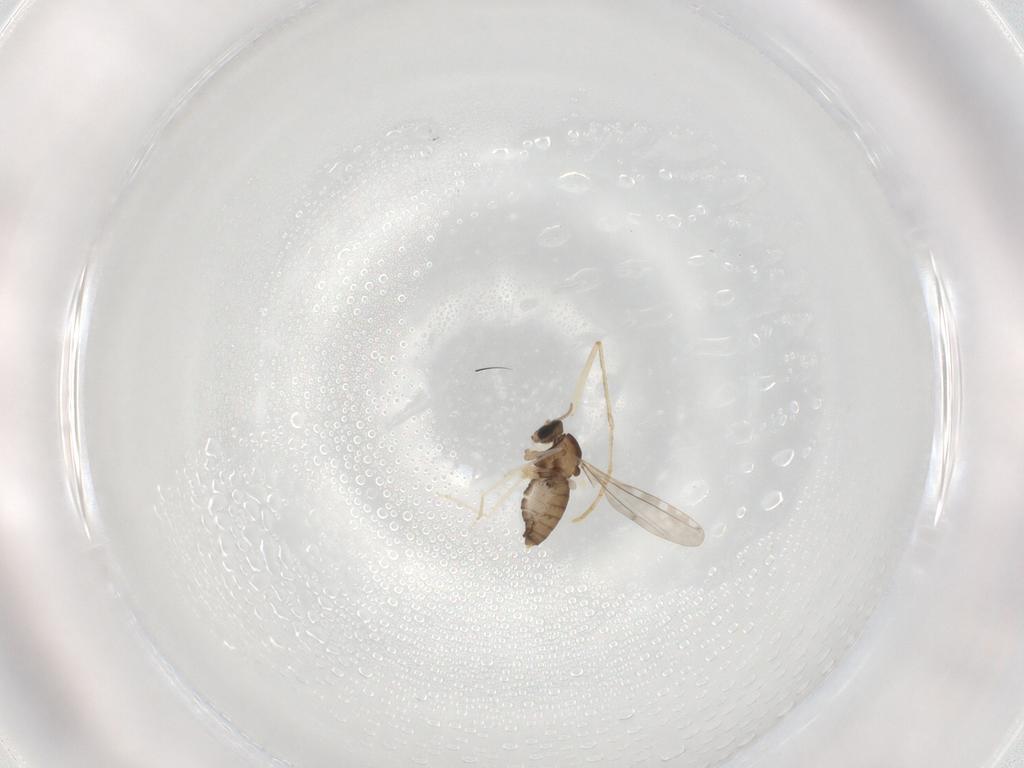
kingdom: Animalia
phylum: Arthropoda
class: Insecta
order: Diptera
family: Cecidomyiidae
